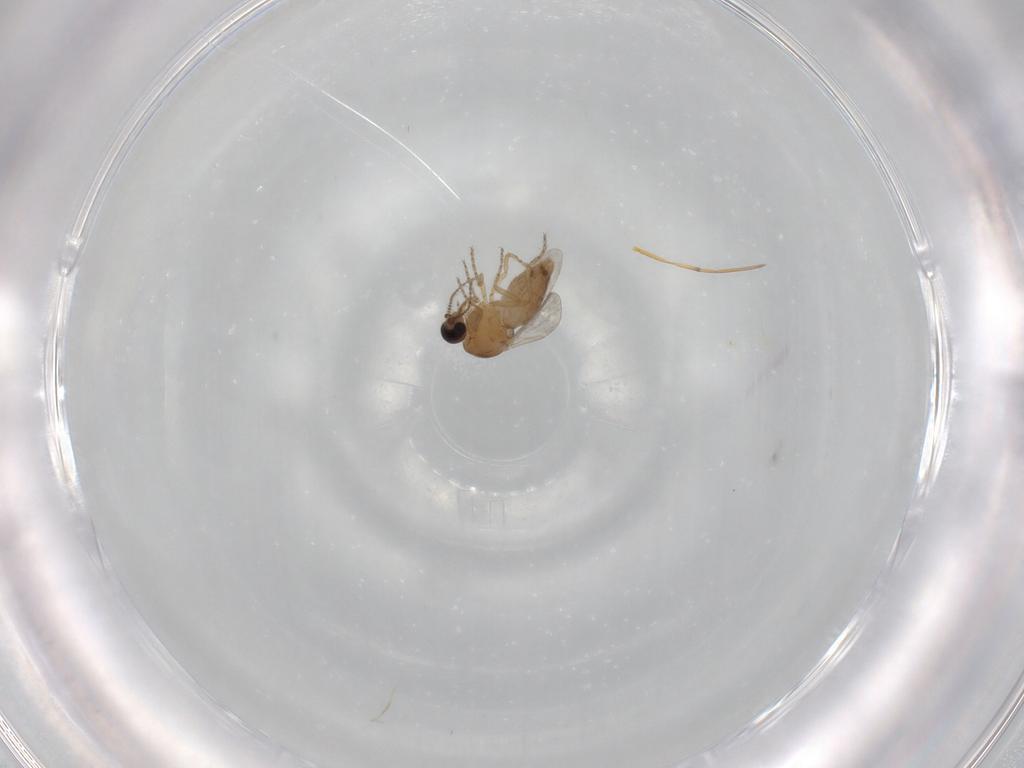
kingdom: Animalia
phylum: Arthropoda
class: Insecta
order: Diptera
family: Ceratopogonidae
